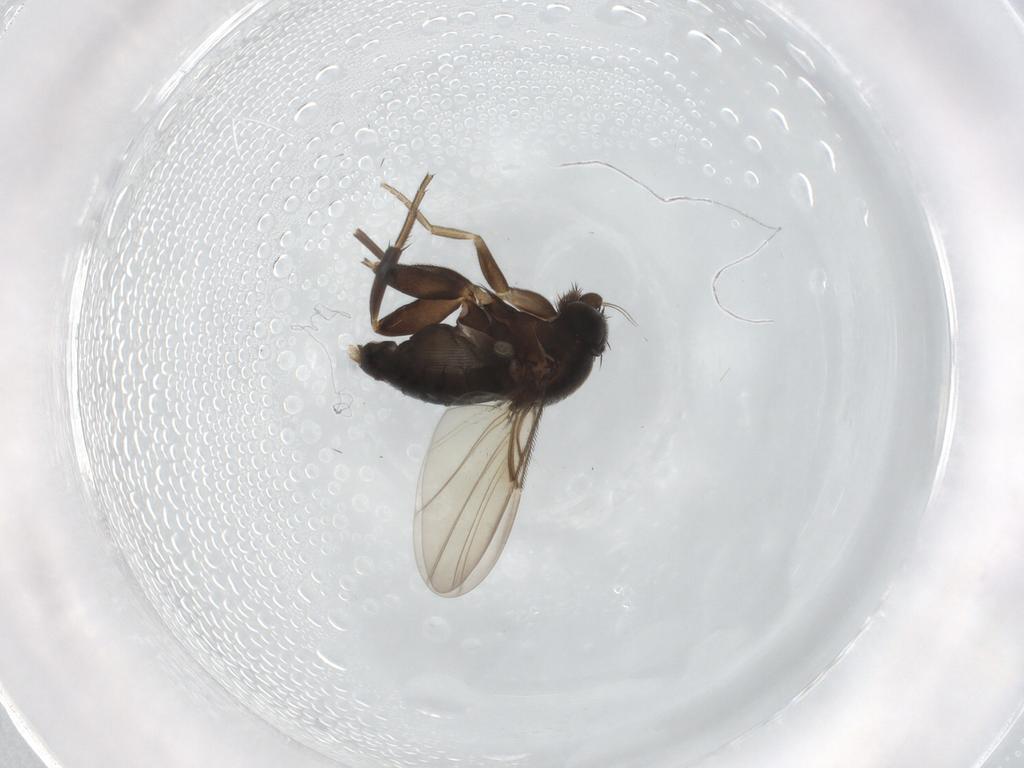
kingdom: Animalia
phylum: Arthropoda
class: Insecta
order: Diptera
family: Phoridae
